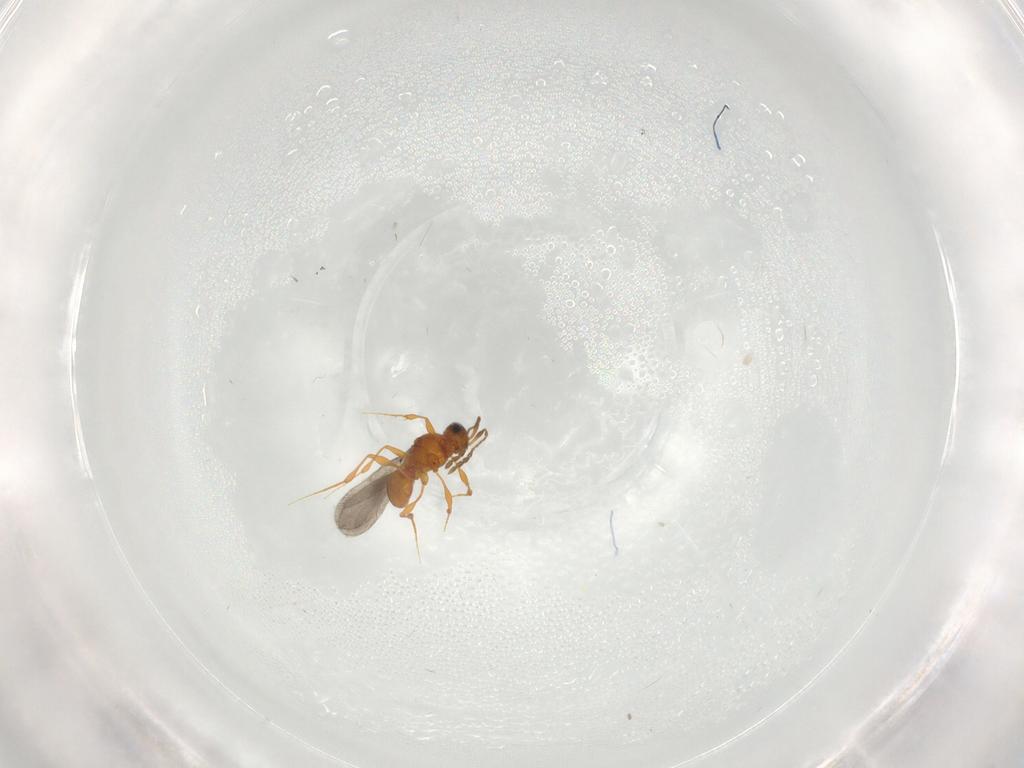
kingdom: Animalia
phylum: Arthropoda
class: Insecta
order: Hymenoptera
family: Platygastridae
